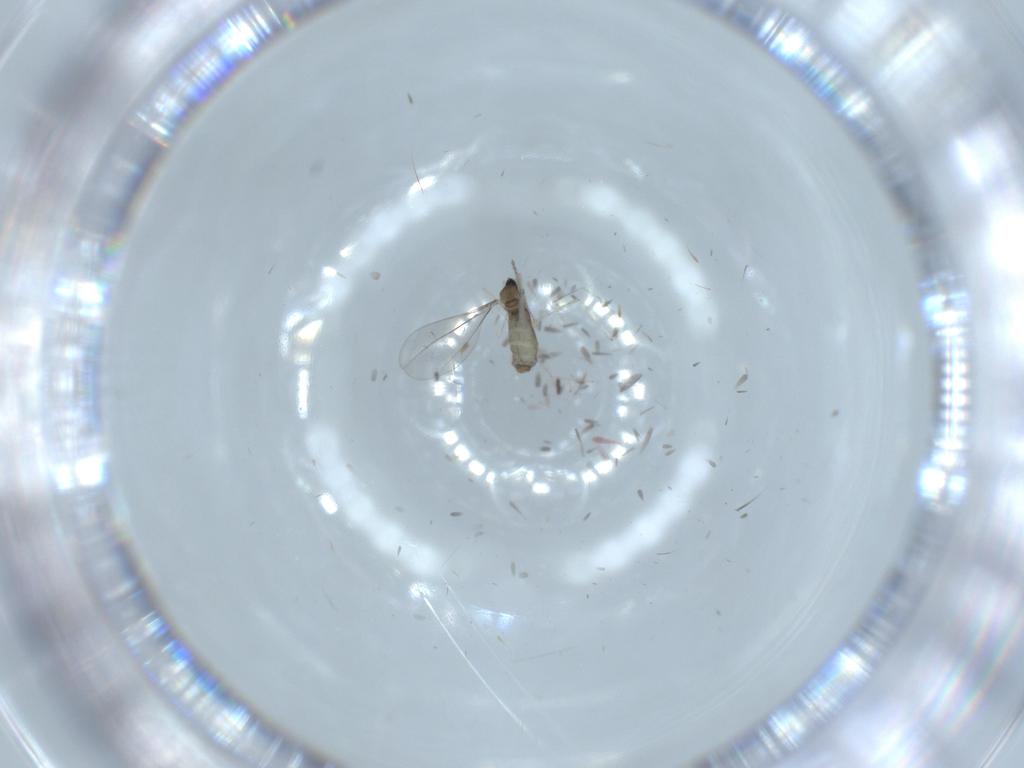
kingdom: Animalia
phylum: Arthropoda
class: Insecta
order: Diptera
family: Cecidomyiidae
